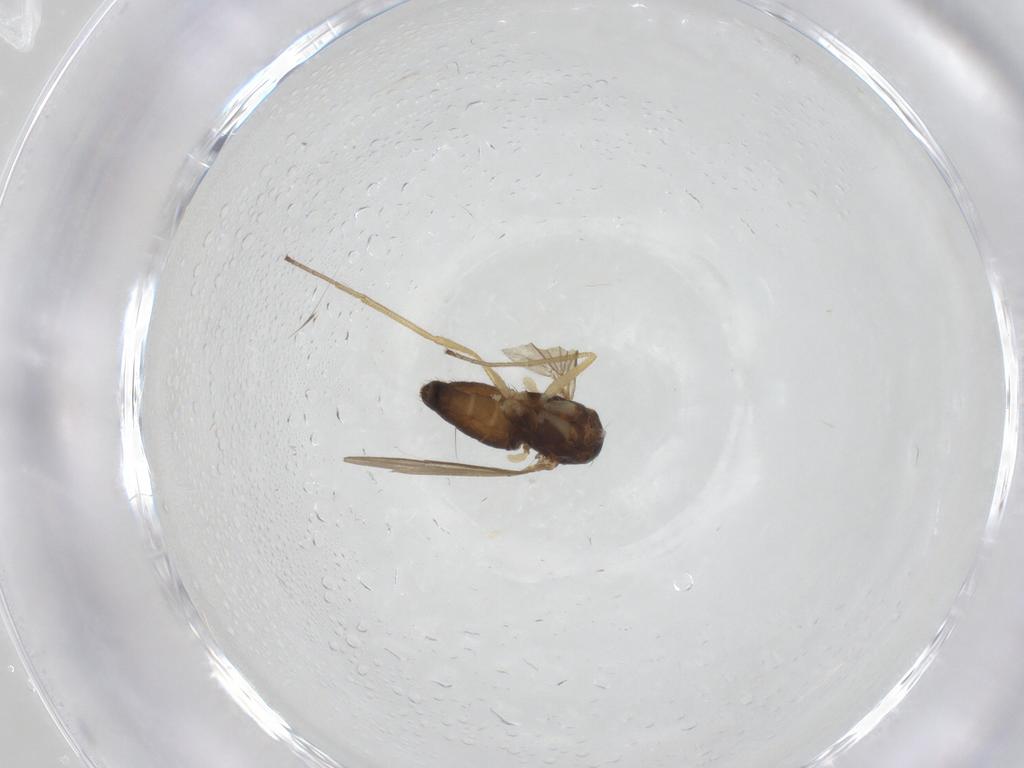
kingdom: Animalia
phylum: Arthropoda
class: Insecta
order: Diptera
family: Dolichopodidae
